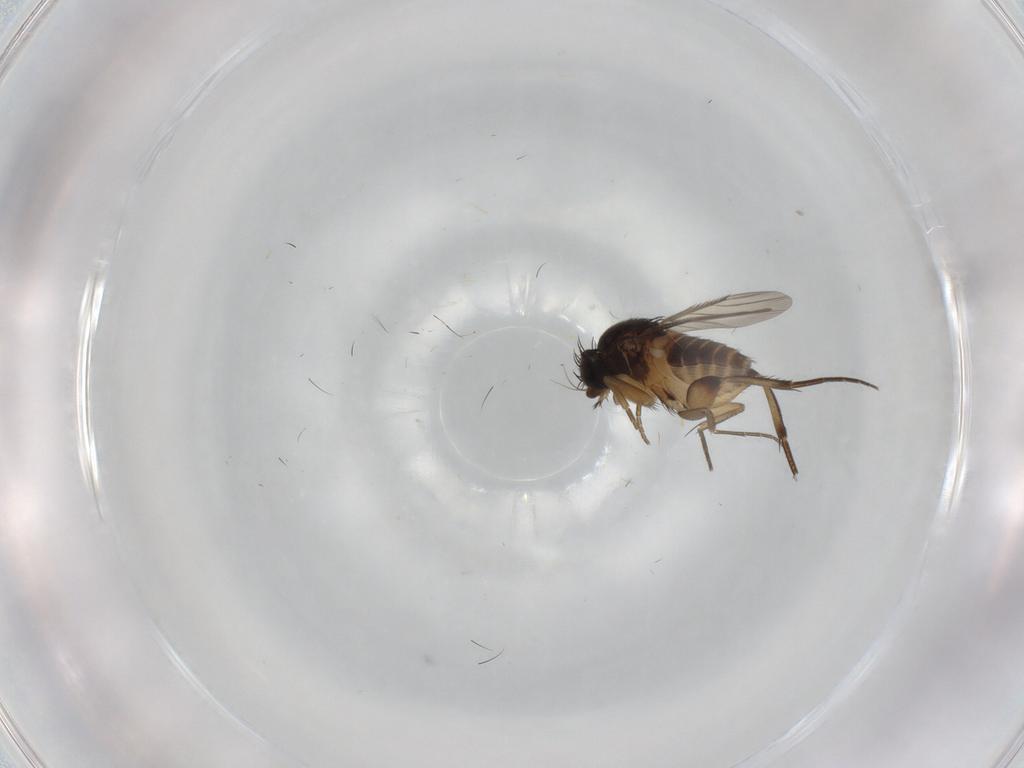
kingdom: Animalia
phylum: Arthropoda
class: Insecta
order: Diptera
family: Phoridae
